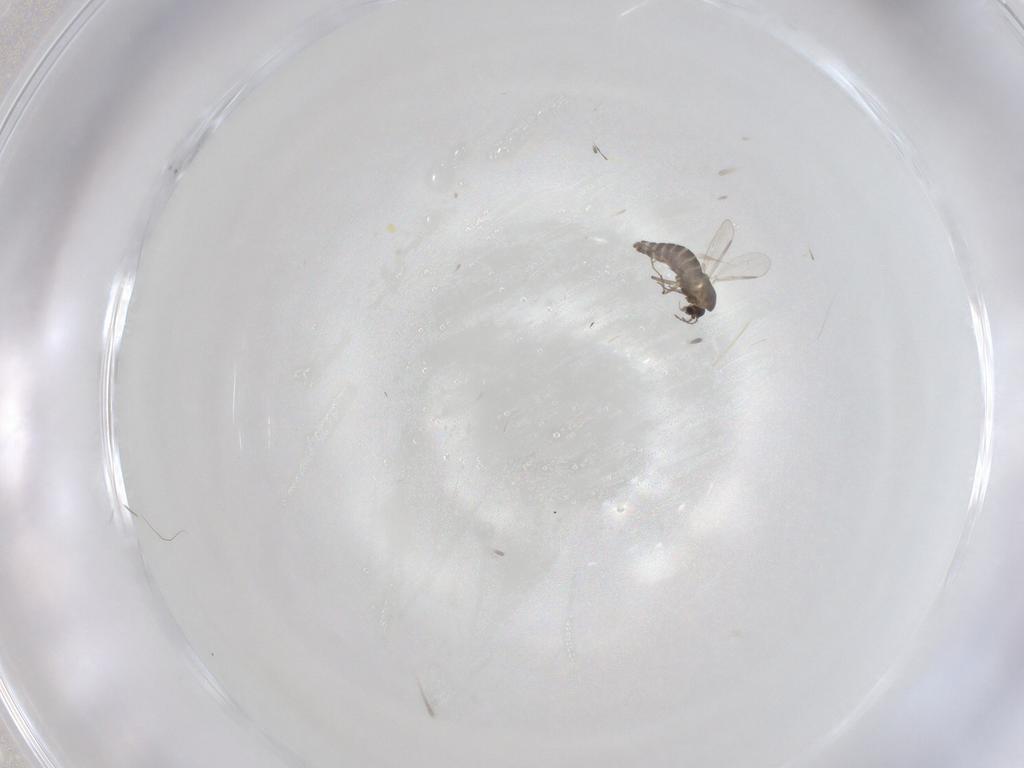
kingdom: Animalia
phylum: Arthropoda
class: Insecta
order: Diptera
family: Chironomidae
